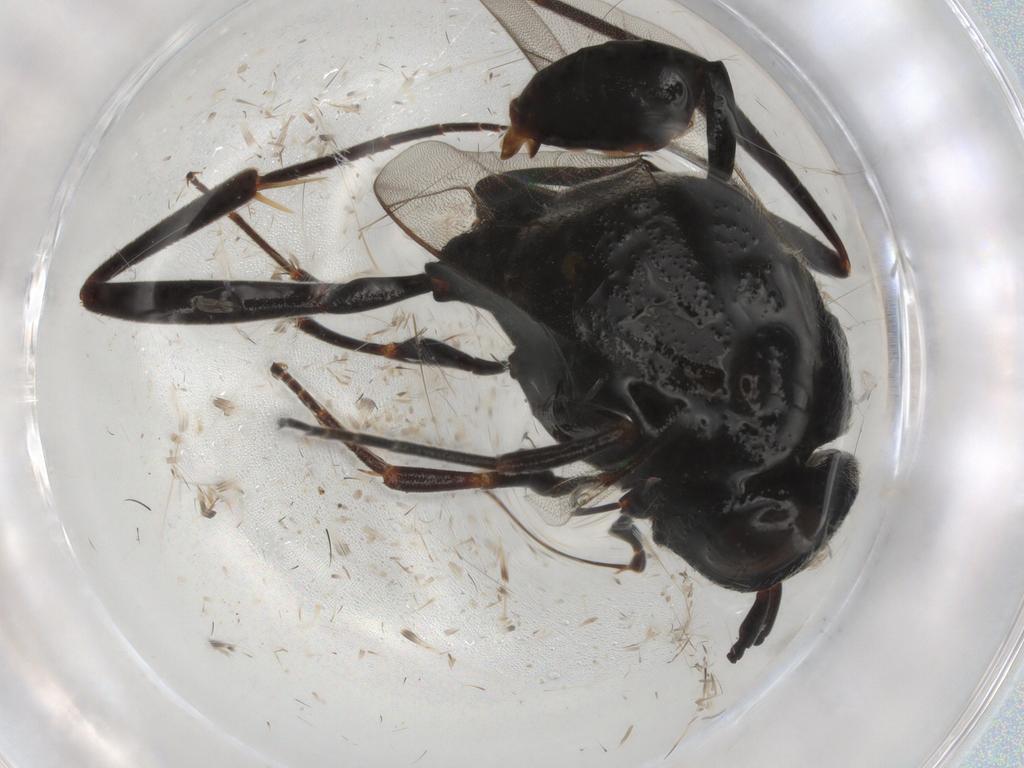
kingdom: Animalia
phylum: Arthropoda
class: Insecta
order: Hymenoptera
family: Evaniidae
